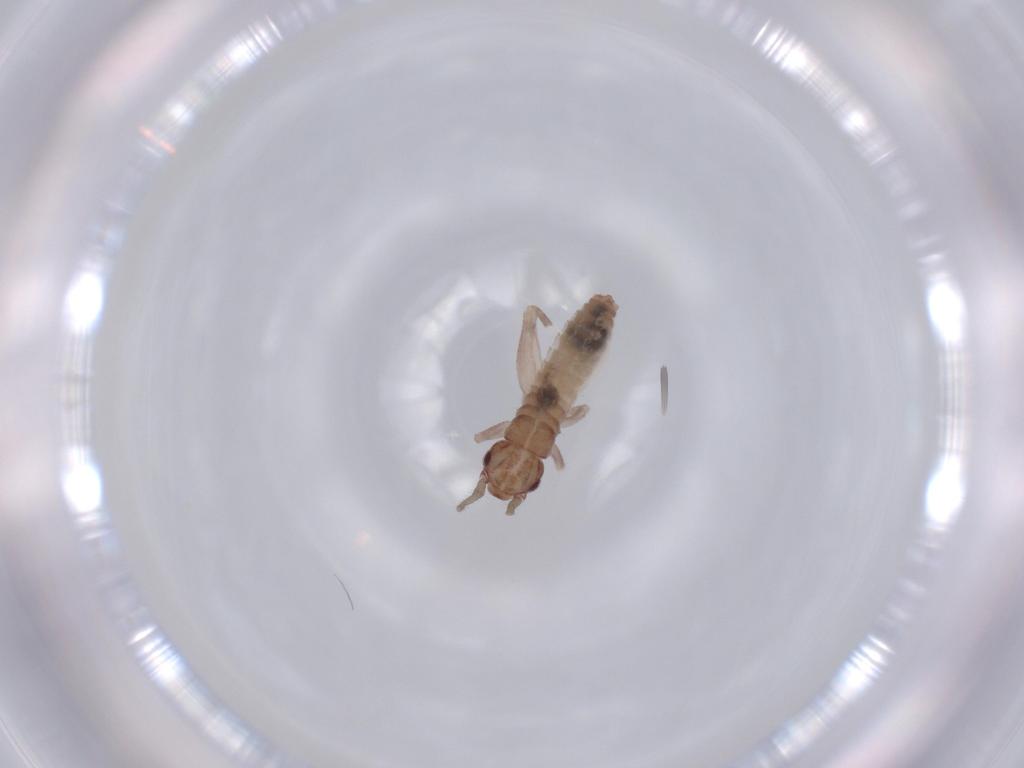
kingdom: Animalia
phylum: Arthropoda
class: Insecta
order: Orthoptera
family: Mogoplistidae
